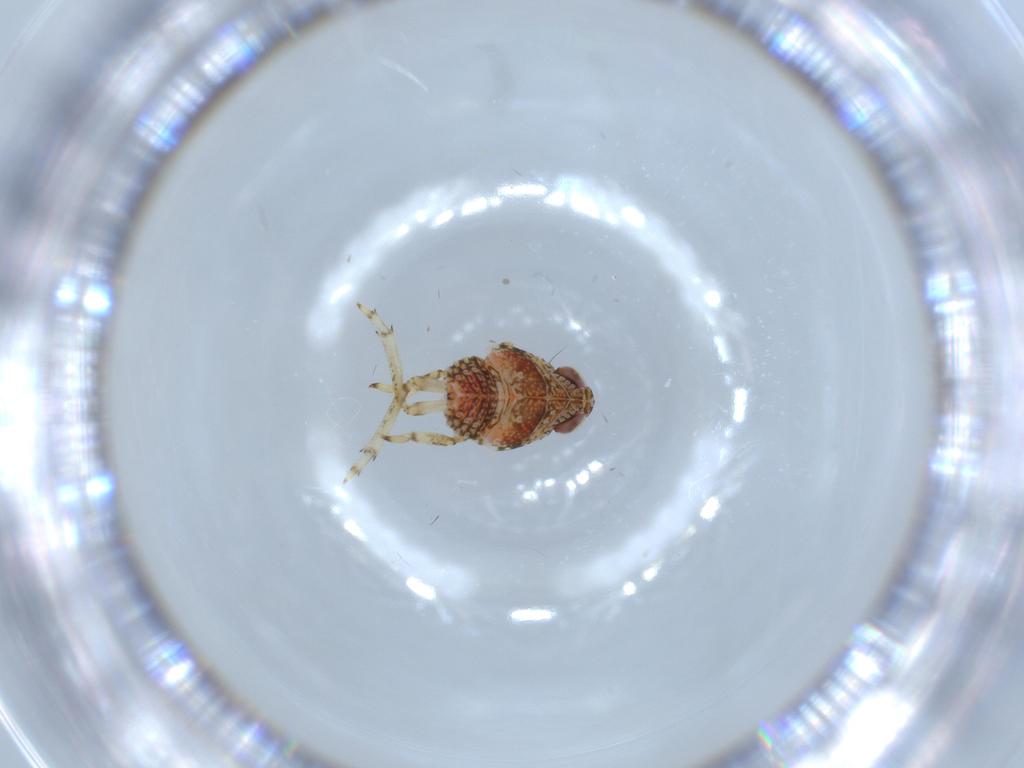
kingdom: Animalia
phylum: Arthropoda
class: Insecta
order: Hemiptera
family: Issidae
